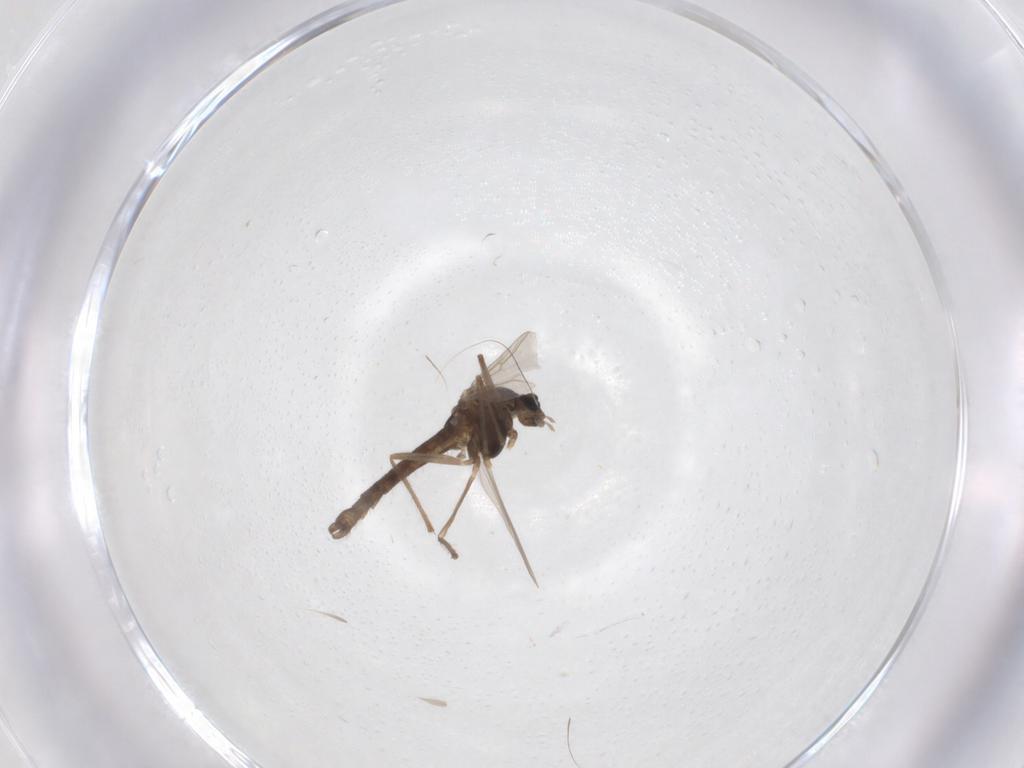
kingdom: Animalia
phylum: Arthropoda
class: Insecta
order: Diptera
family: Chironomidae
